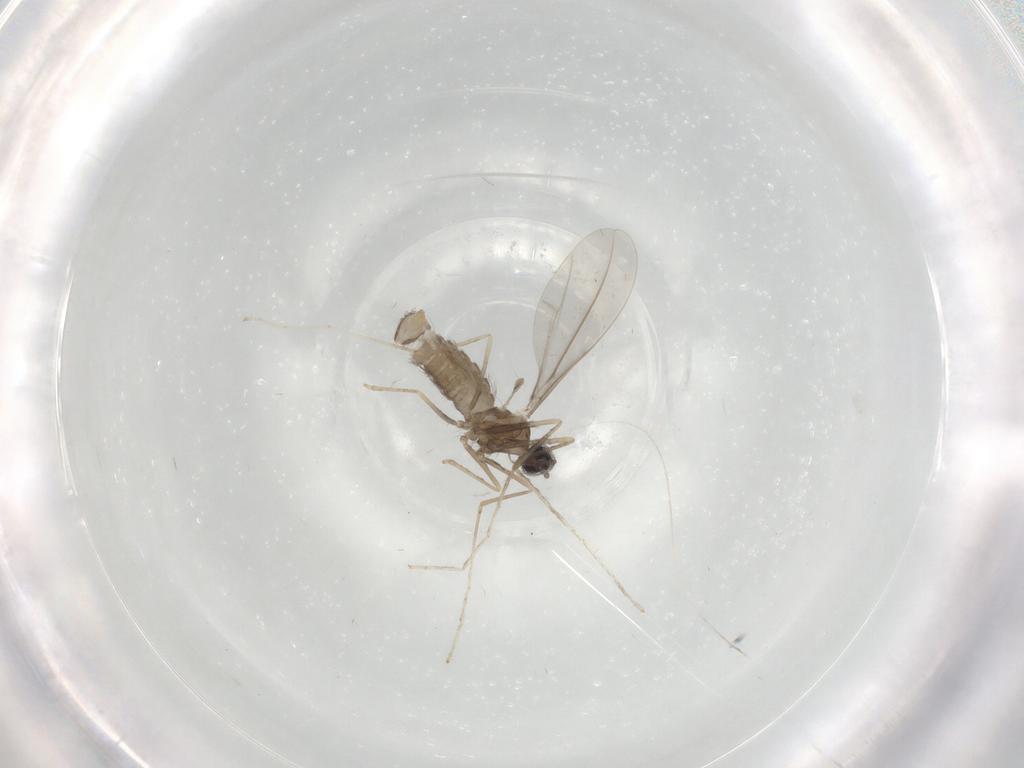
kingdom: Animalia
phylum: Arthropoda
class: Insecta
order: Diptera
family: Cecidomyiidae
